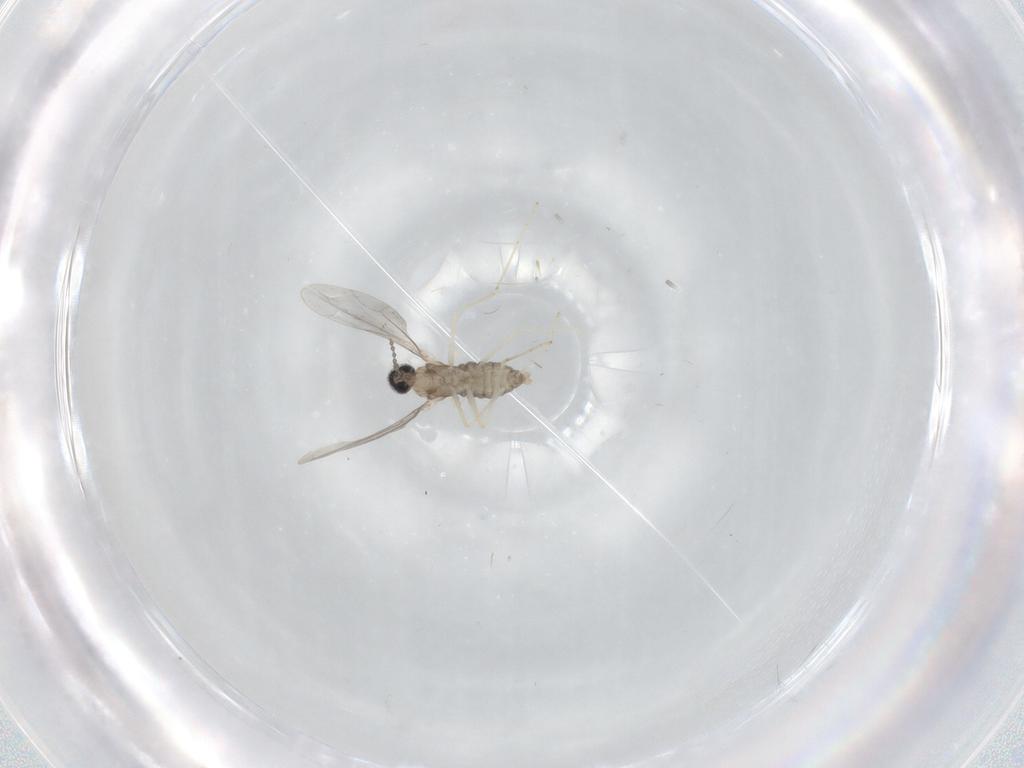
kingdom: Animalia
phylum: Arthropoda
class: Insecta
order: Diptera
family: Cecidomyiidae
